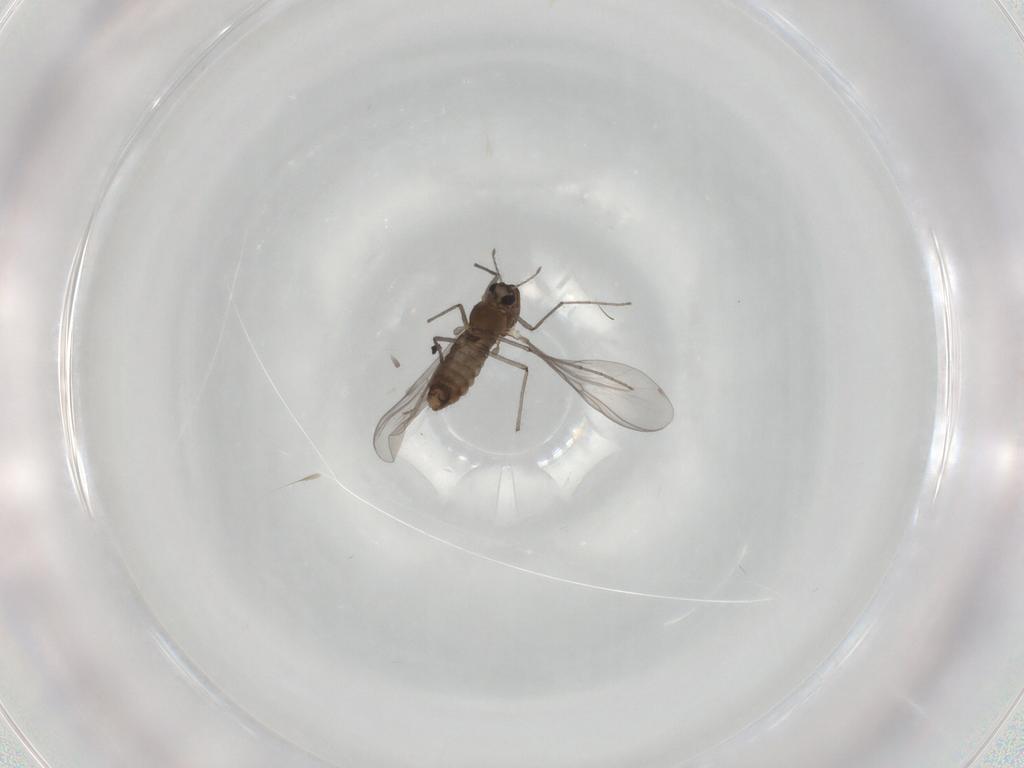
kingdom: Animalia
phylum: Arthropoda
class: Insecta
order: Diptera
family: Chironomidae
